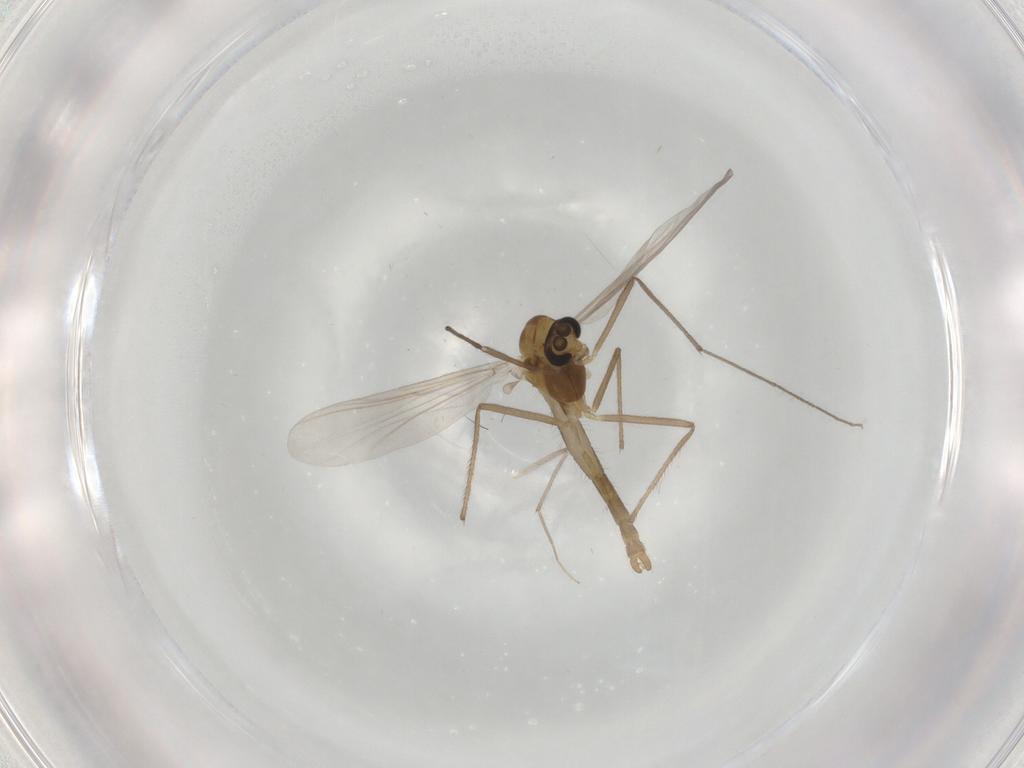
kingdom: Animalia
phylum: Arthropoda
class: Insecta
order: Diptera
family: Chironomidae
